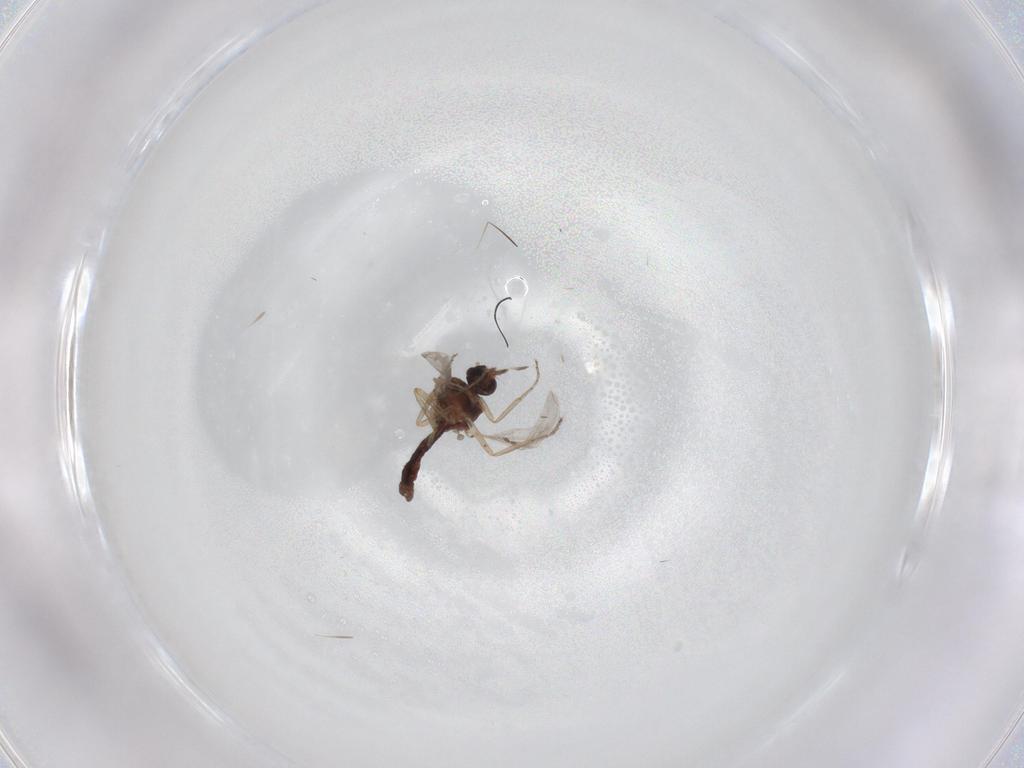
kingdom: Animalia
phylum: Arthropoda
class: Insecta
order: Diptera
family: Ceratopogonidae
